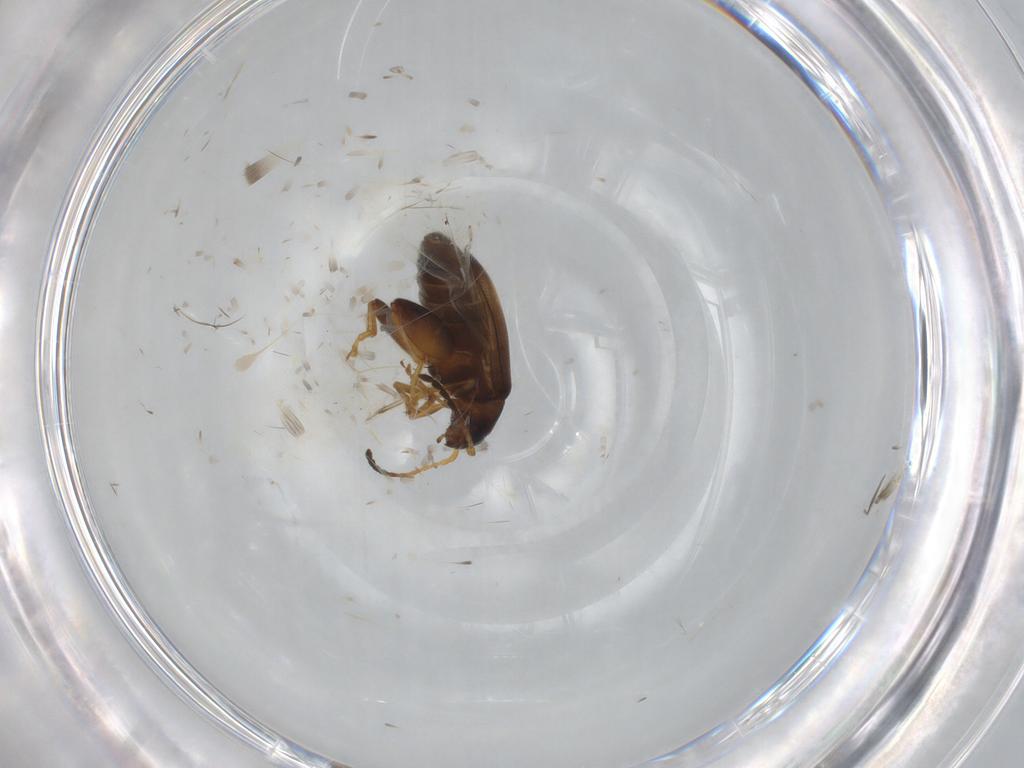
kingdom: Animalia
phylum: Arthropoda
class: Insecta
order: Coleoptera
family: Chrysomelidae
